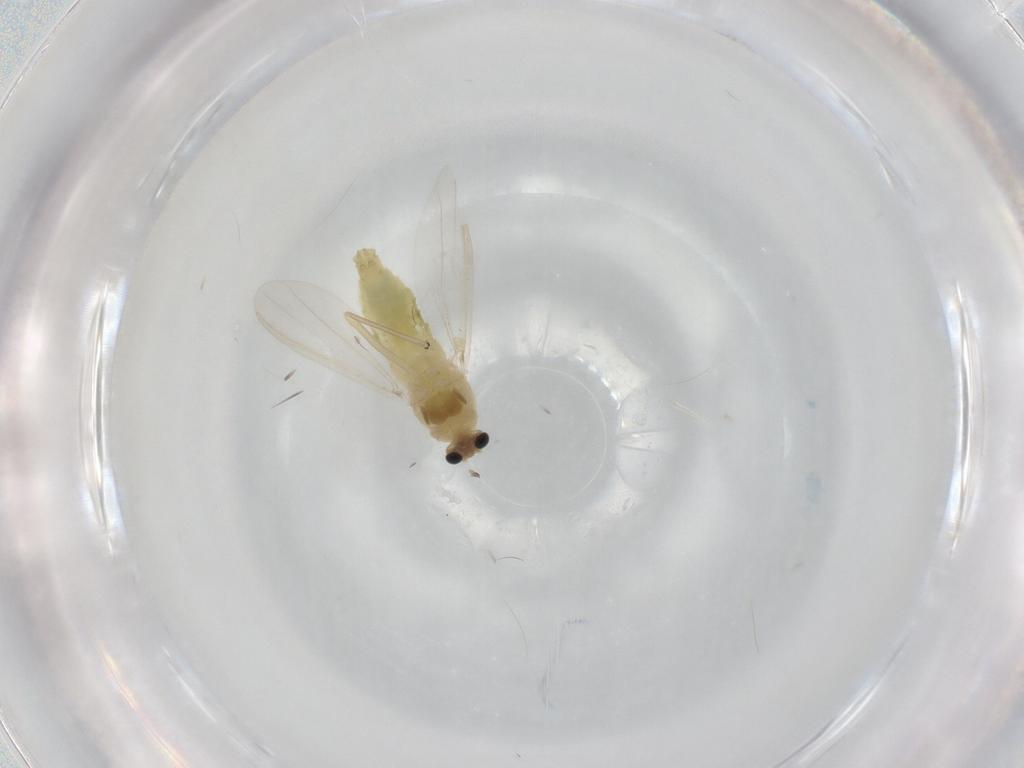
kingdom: Animalia
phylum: Arthropoda
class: Insecta
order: Diptera
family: Chironomidae
